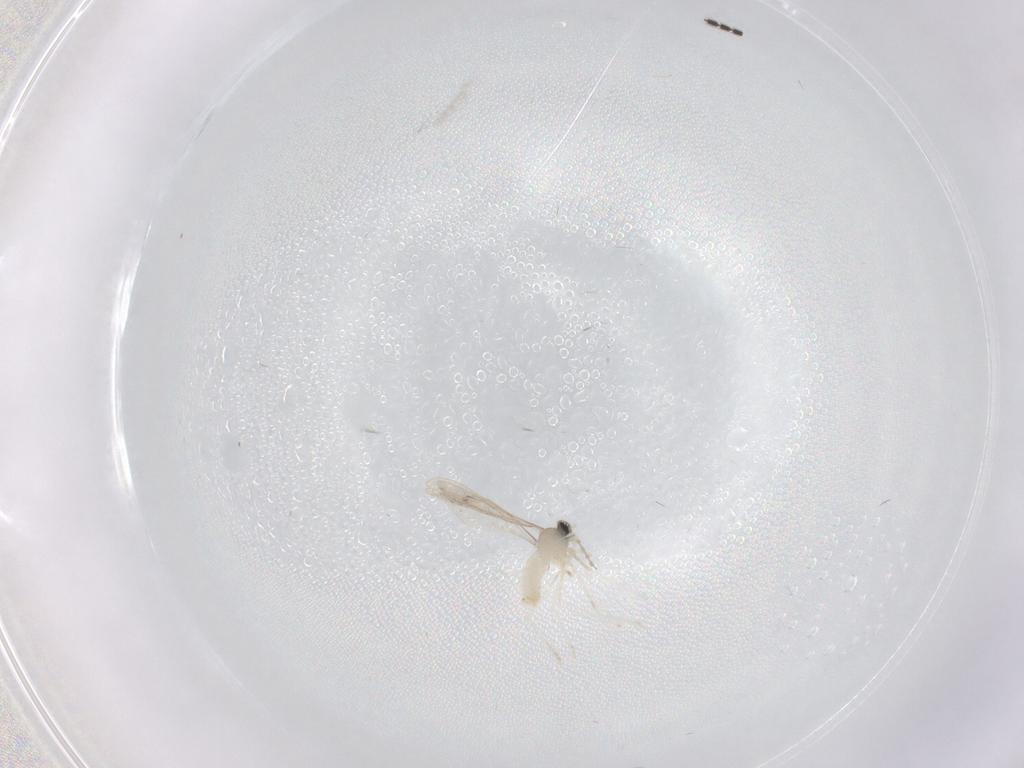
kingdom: Animalia
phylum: Arthropoda
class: Insecta
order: Diptera
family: Cecidomyiidae
